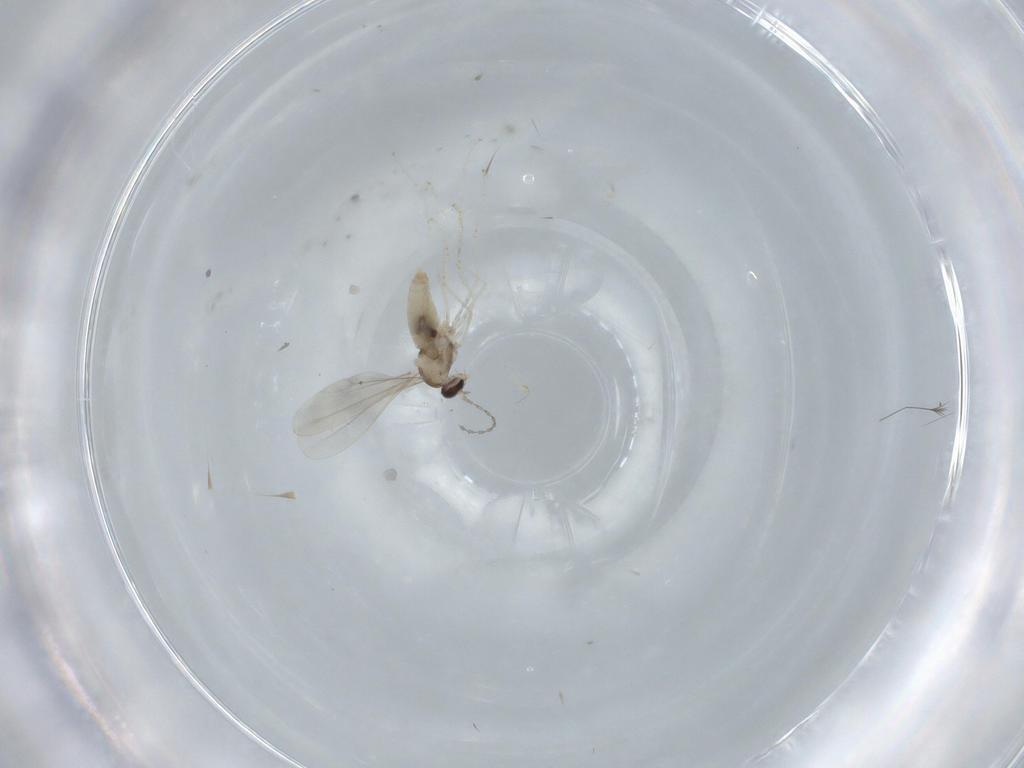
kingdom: Animalia
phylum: Arthropoda
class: Insecta
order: Diptera
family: Cecidomyiidae
